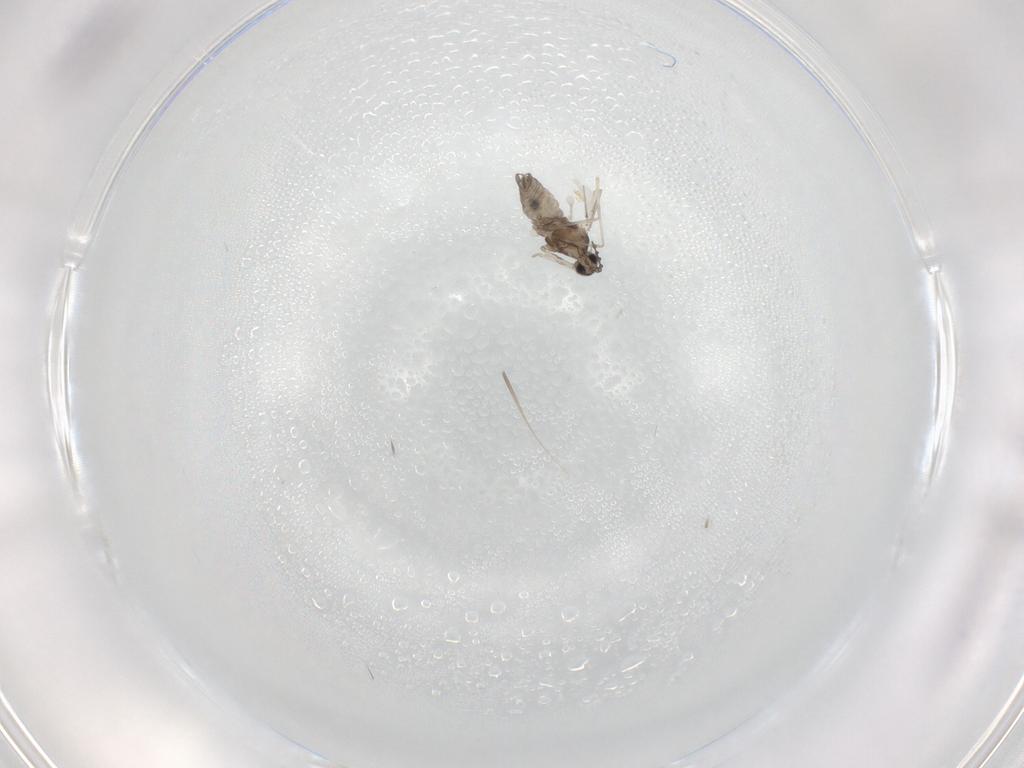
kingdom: Animalia
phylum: Arthropoda
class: Insecta
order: Diptera
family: Cecidomyiidae
